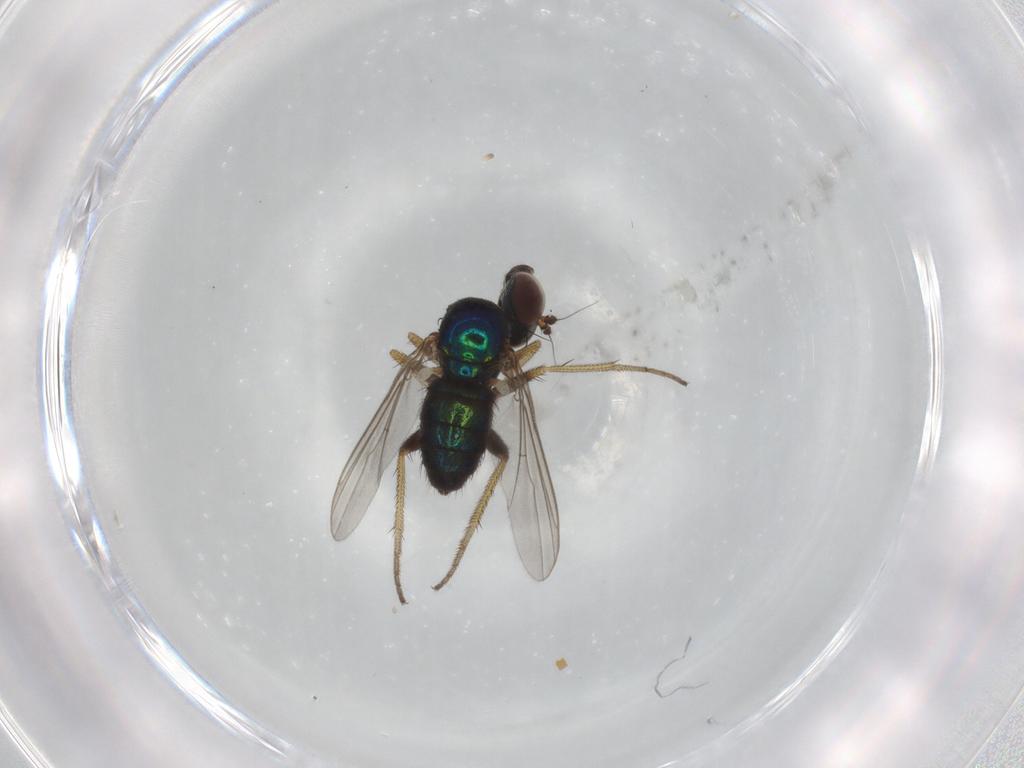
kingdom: Animalia
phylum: Arthropoda
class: Insecta
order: Diptera
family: Dolichopodidae
